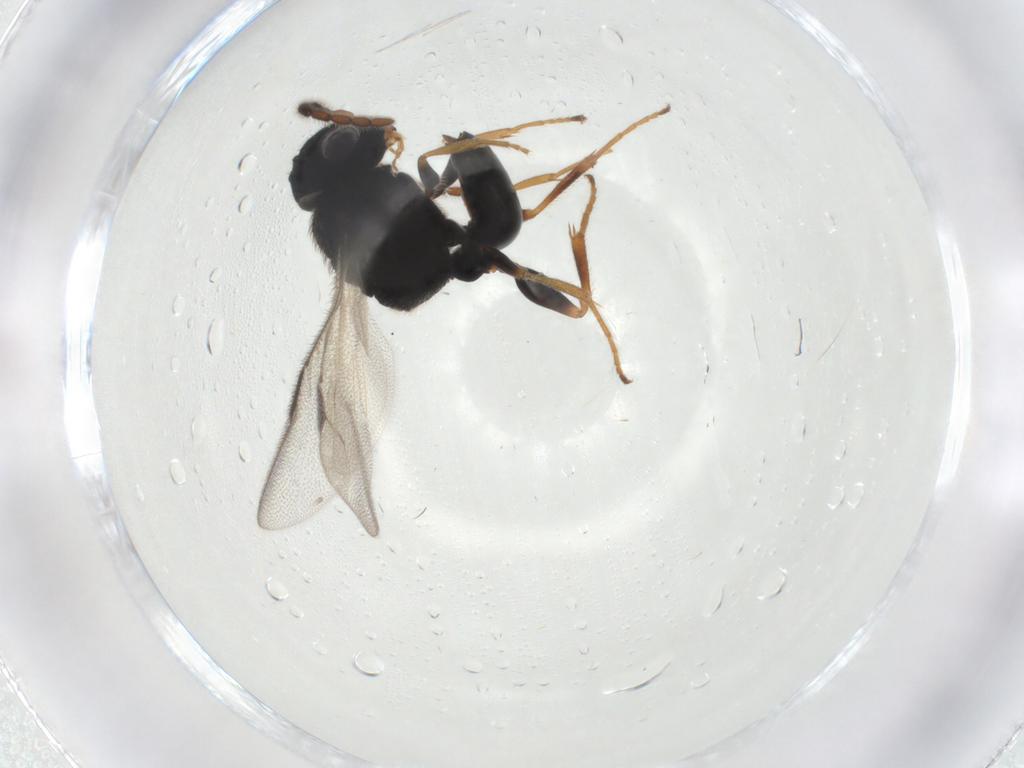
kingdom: Animalia
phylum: Arthropoda
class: Insecta
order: Hymenoptera
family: Dryinidae
